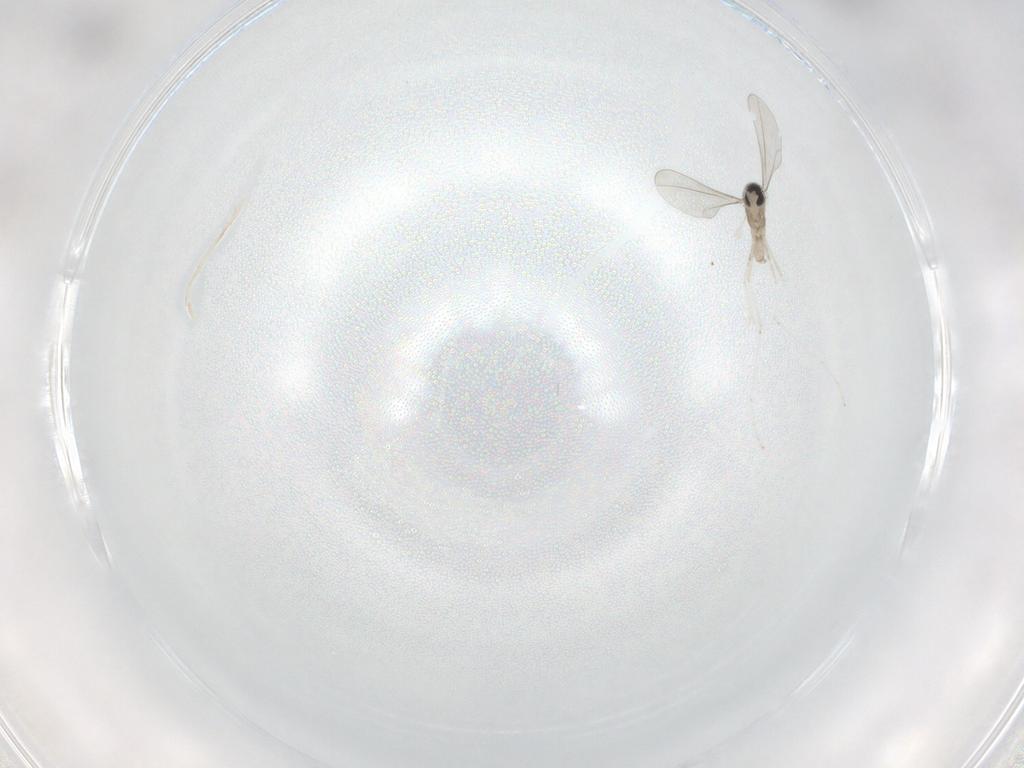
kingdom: Animalia
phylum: Arthropoda
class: Insecta
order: Diptera
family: Cecidomyiidae
